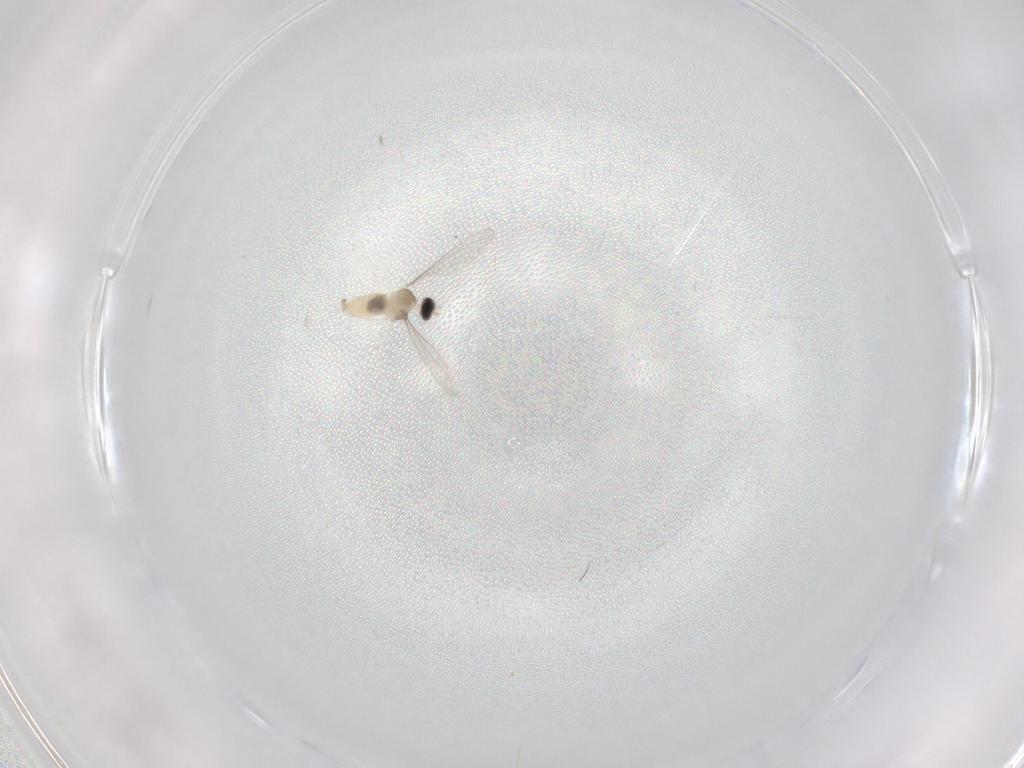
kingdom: Animalia
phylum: Arthropoda
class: Insecta
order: Diptera
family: Cecidomyiidae
